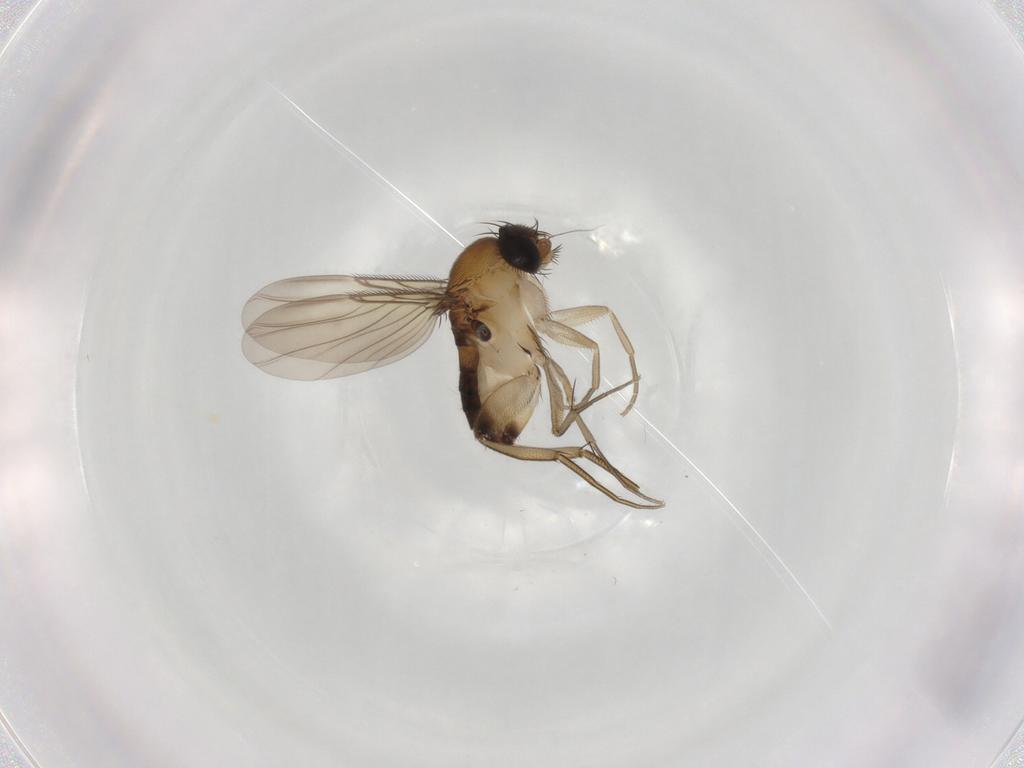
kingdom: Animalia
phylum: Arthropoda
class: Insecta
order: Diptera
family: Phoridae
